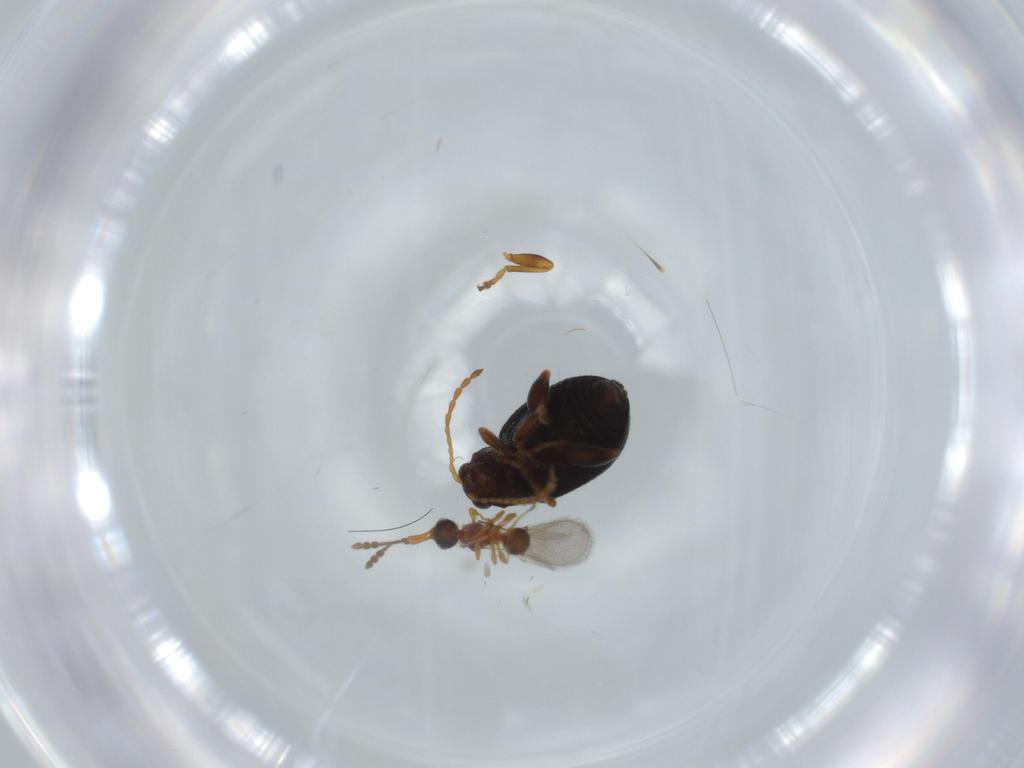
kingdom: Animalia
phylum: Arthropoda
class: Insecta
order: Hymenoptera
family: Diapriidae
